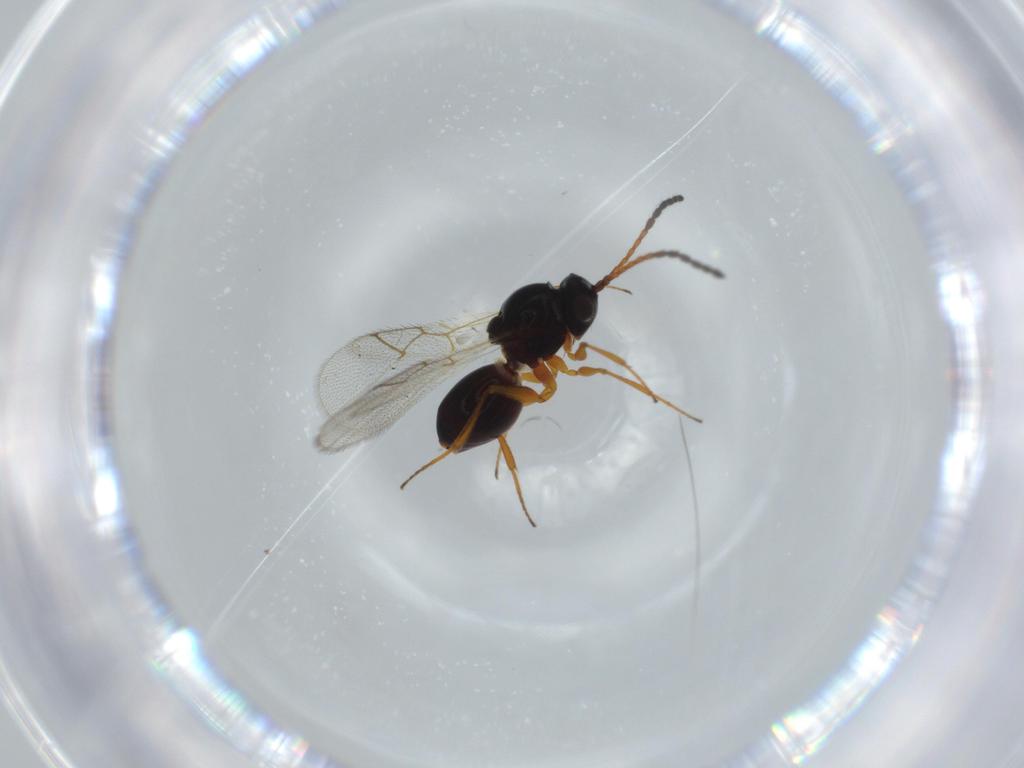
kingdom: Animalia
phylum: Arthropoda
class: Insecta
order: Hymenoptera
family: Figitidae
